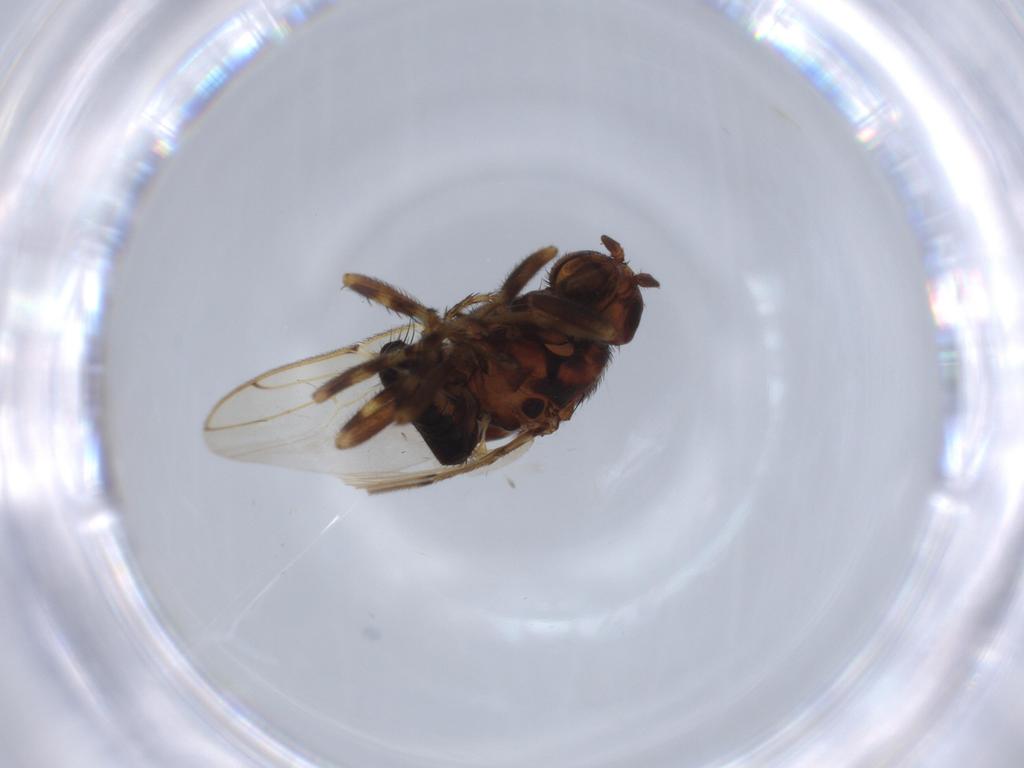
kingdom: Animalia
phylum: Arthropoda
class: Insecta
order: Diptera
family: Sphaeroceridae
